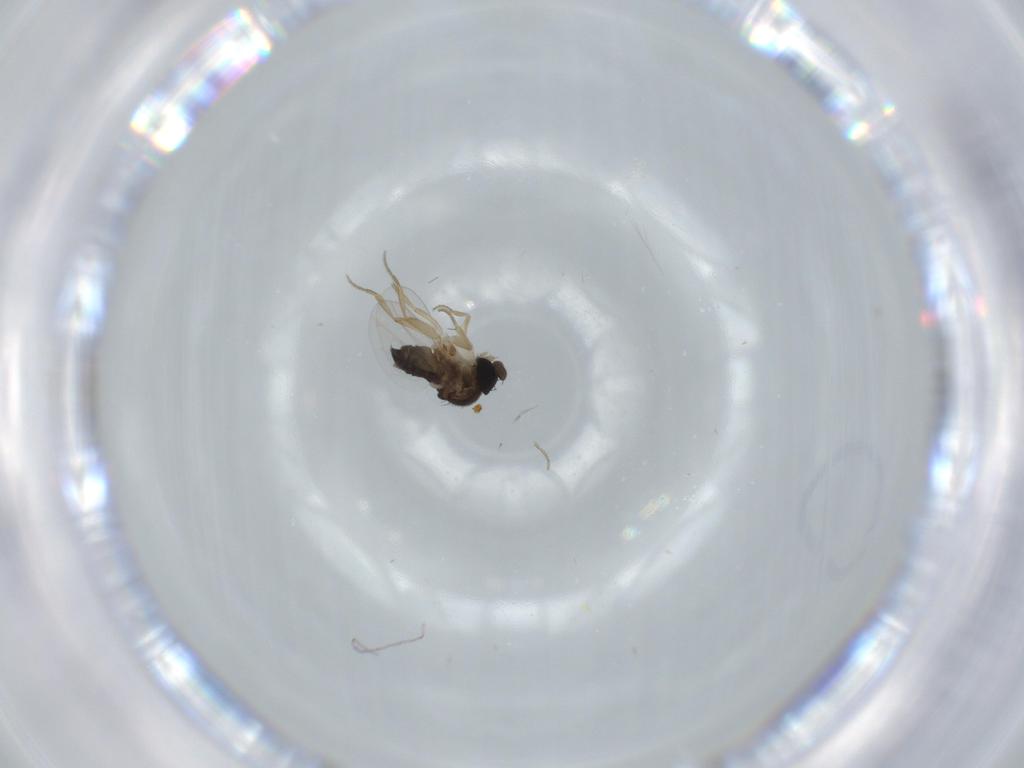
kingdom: Animalia
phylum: Arthropoda
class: Insecta
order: Diptera
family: Phoridae
